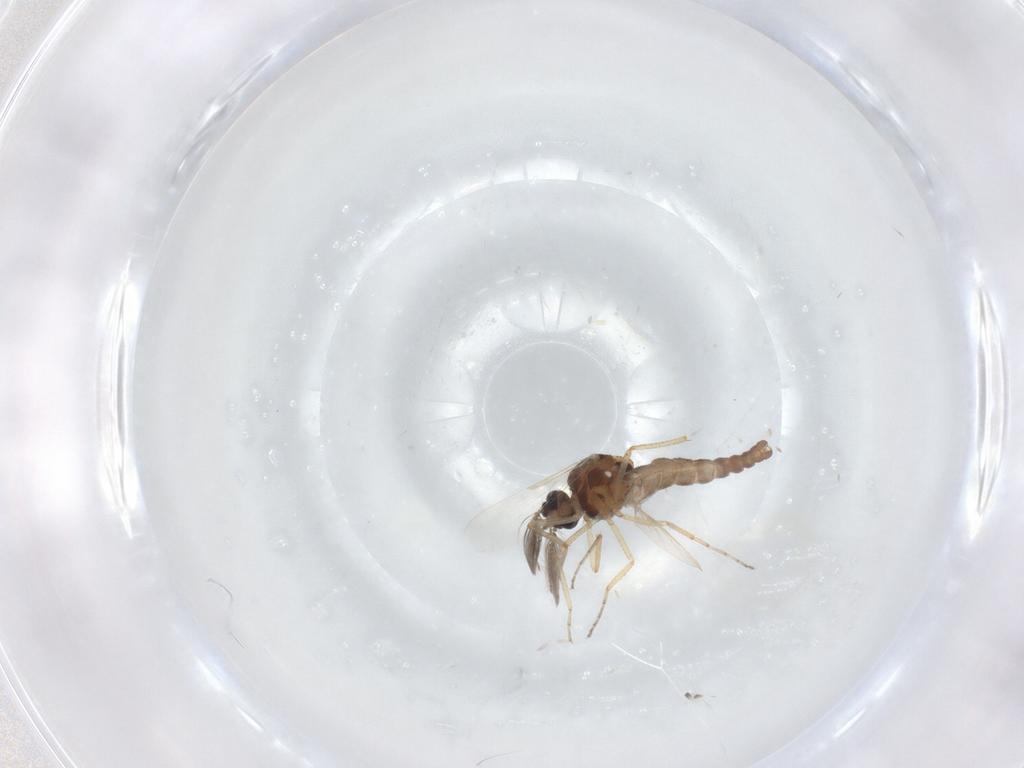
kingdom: Animalia
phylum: Arthropoda
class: Insecta
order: Diptera
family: Ceratopogonidae
